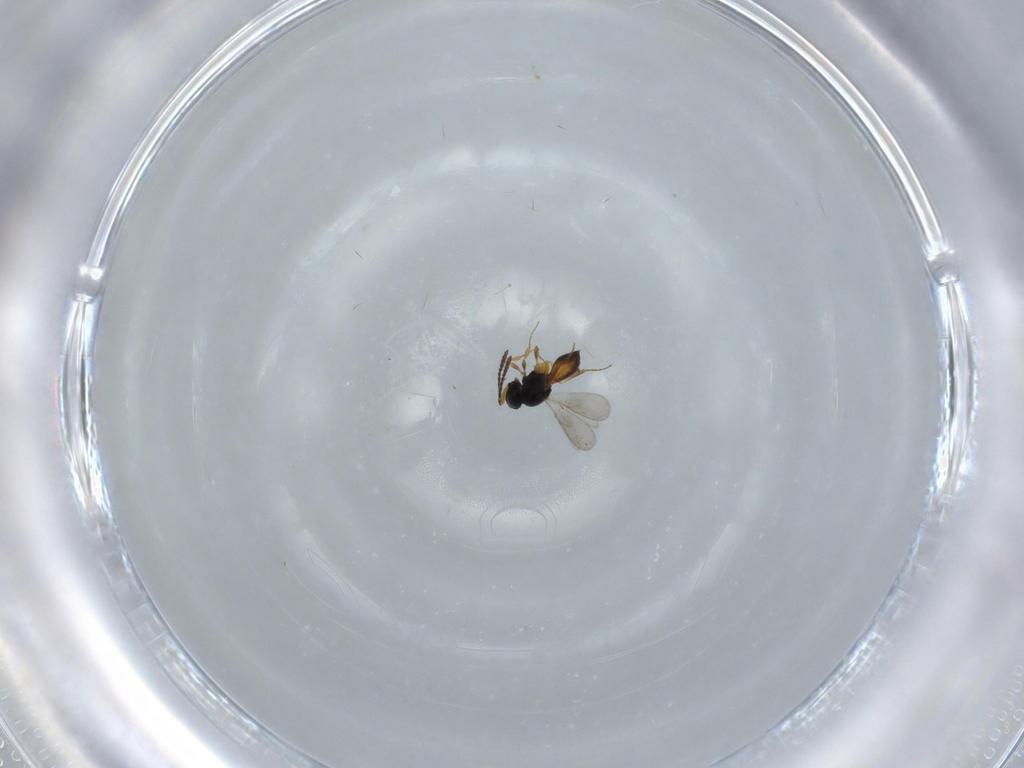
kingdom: Animalia
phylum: Arthropoda
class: Insecta
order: Hymenoptera
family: Scelionidae
